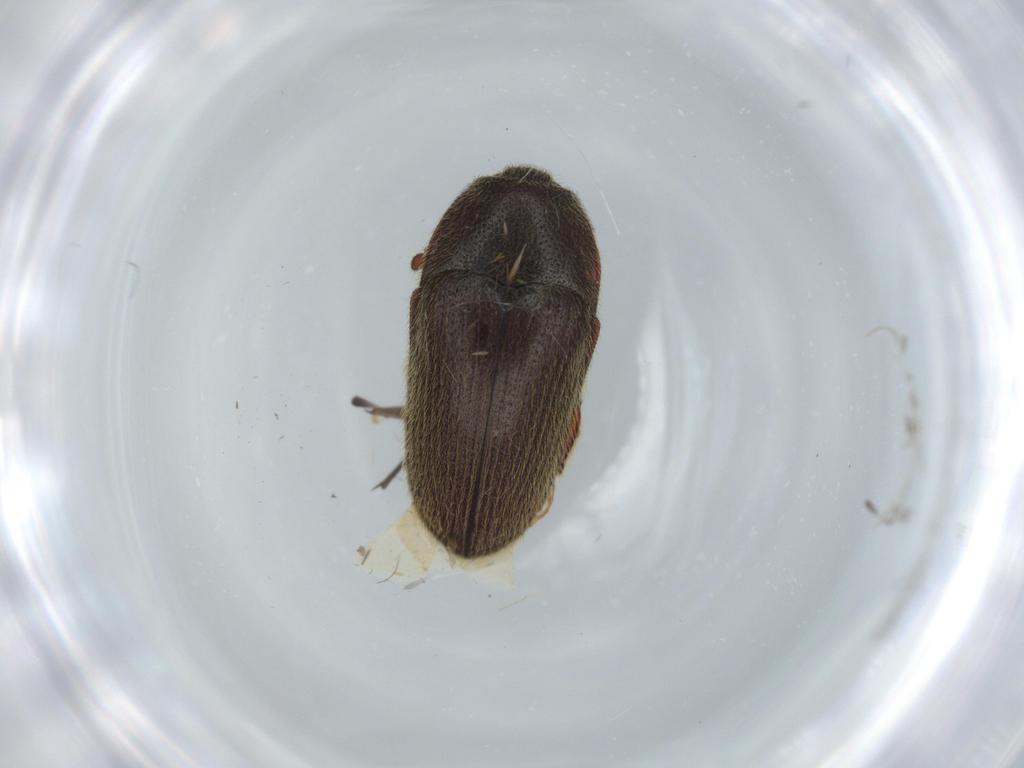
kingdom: Animalia
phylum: Arthropoda
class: Insecta
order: Coleoptera
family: Throscidae
